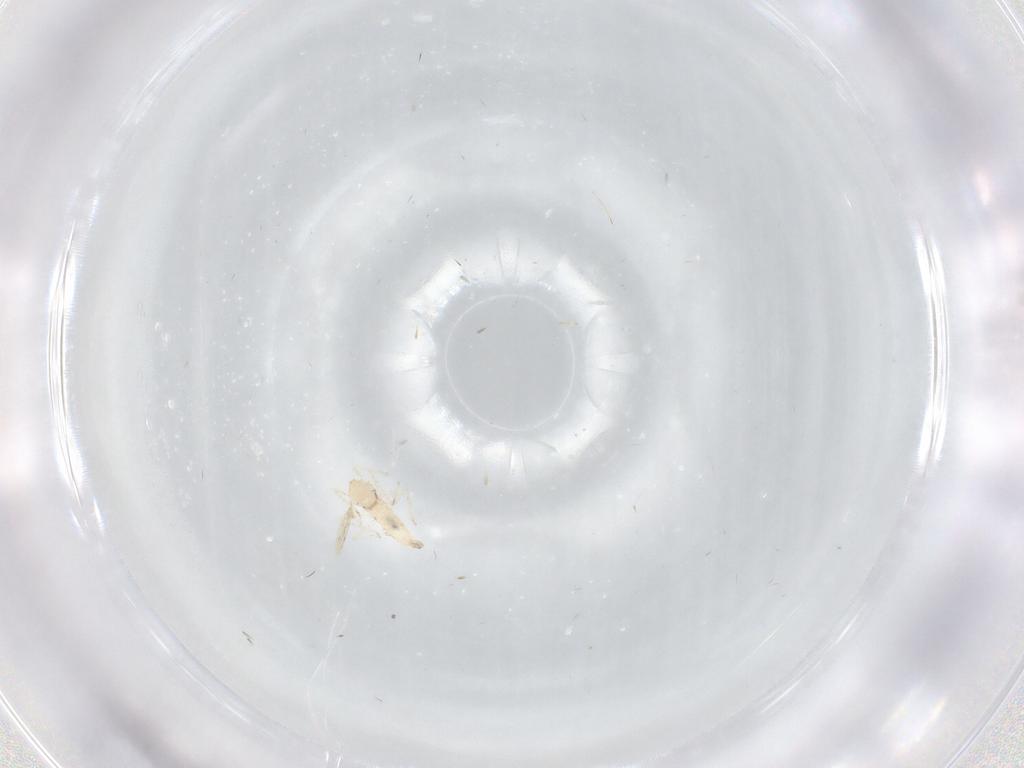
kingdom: Animalia
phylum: Arthropoda
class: Insecta
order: Diptera
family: Cecidomyiidae
